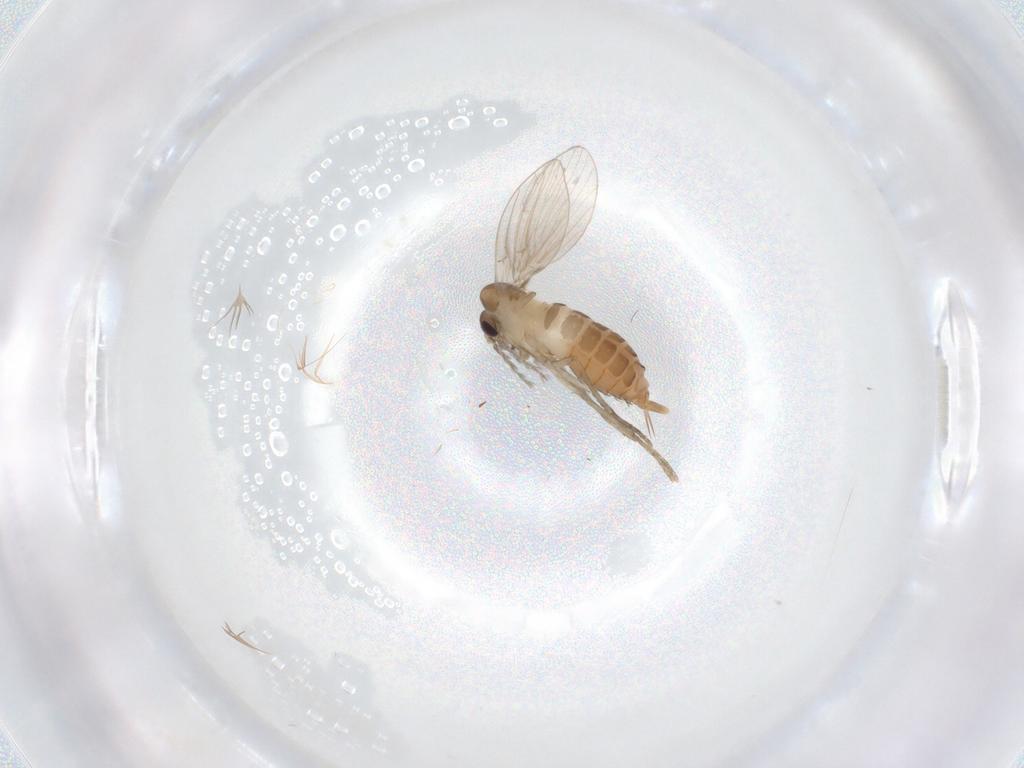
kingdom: Animalia
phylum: Arthropoda
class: Insecta
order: Diptera
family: Psychodidae
